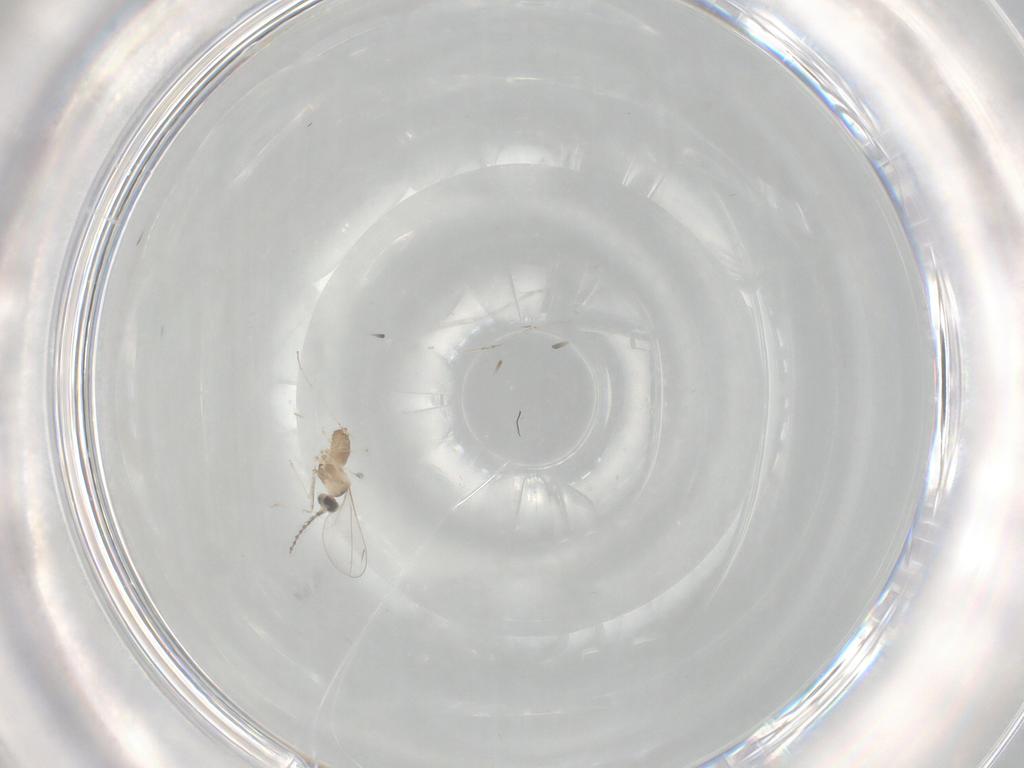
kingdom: Animalia
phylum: Arthropoda
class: Insecta
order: Diptera
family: Cecidomyiidae
